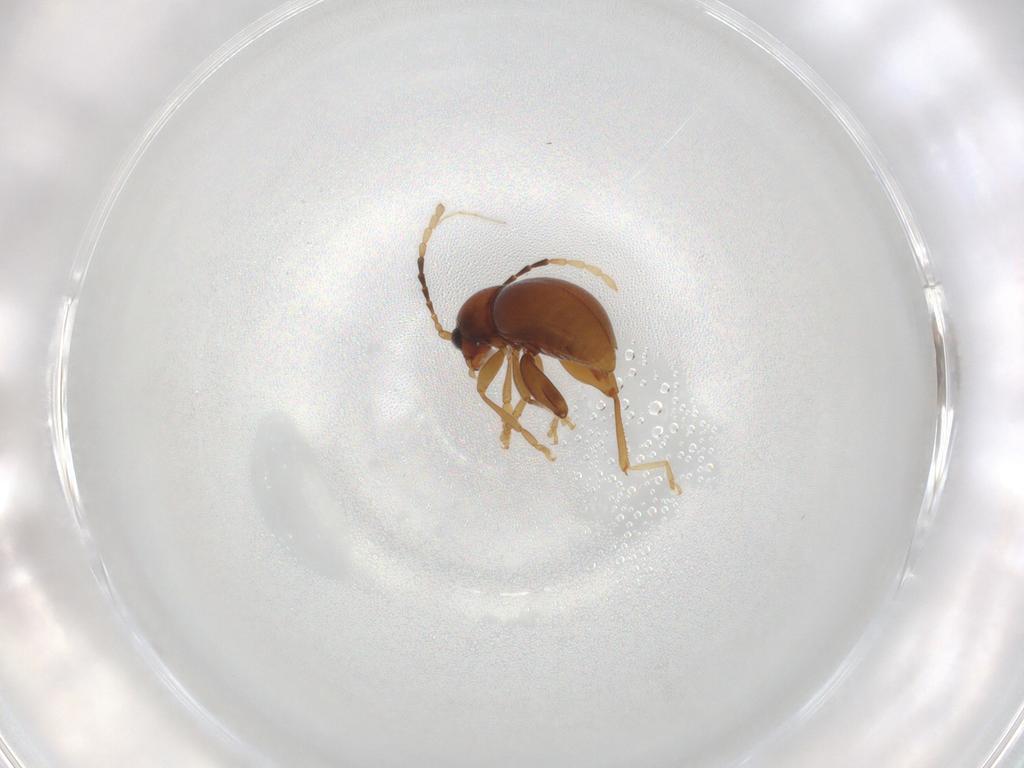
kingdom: Animalia
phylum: Arthropoda
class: Insecta
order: Coleoptera
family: Chrysomelidae
